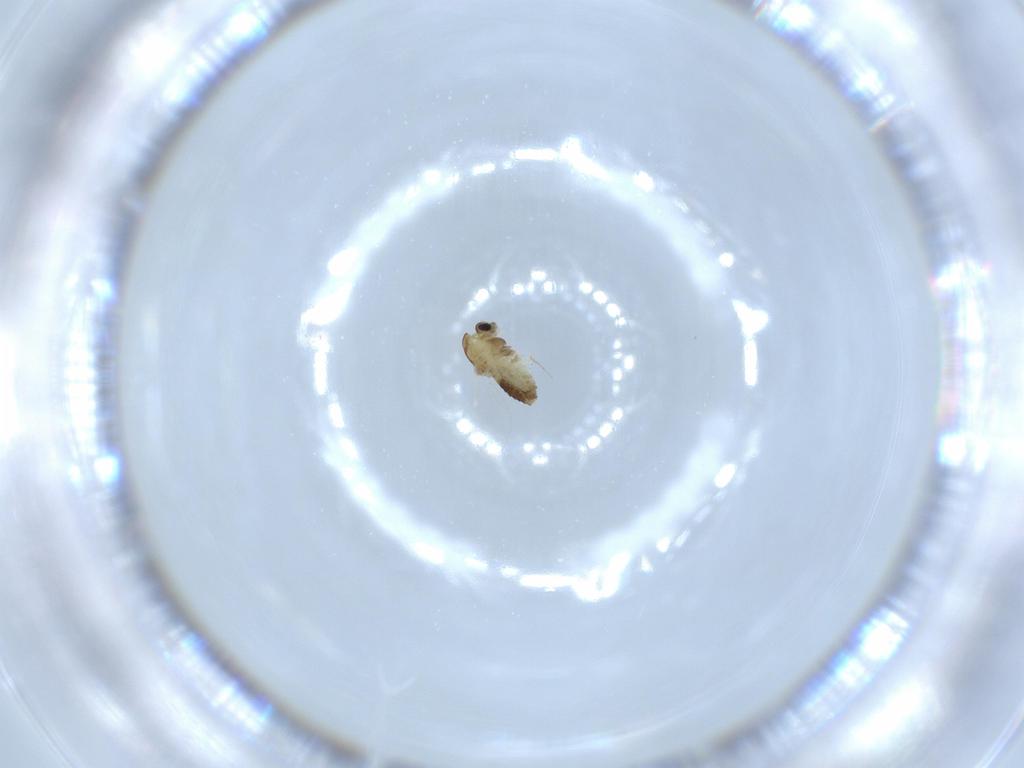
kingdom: Animalia
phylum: Arthropoda
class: Insecta
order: Diptera
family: Chironomidae
